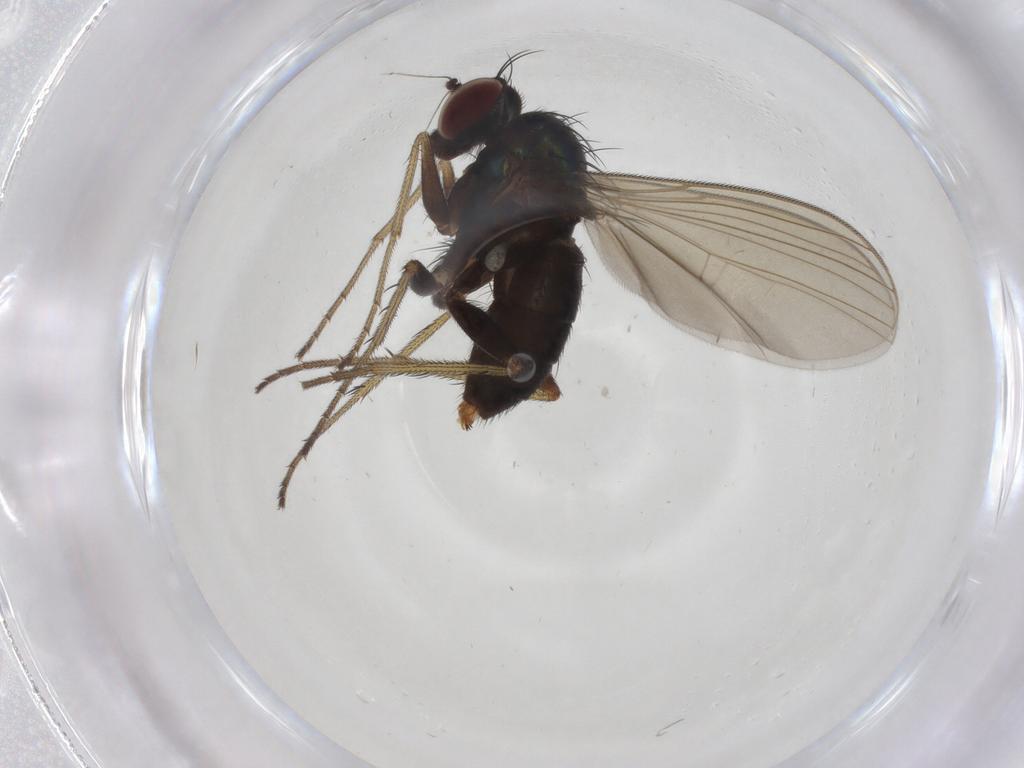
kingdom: Animalia
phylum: Arthropoda
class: Insecta
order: Diptera
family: Dolichopodidae
